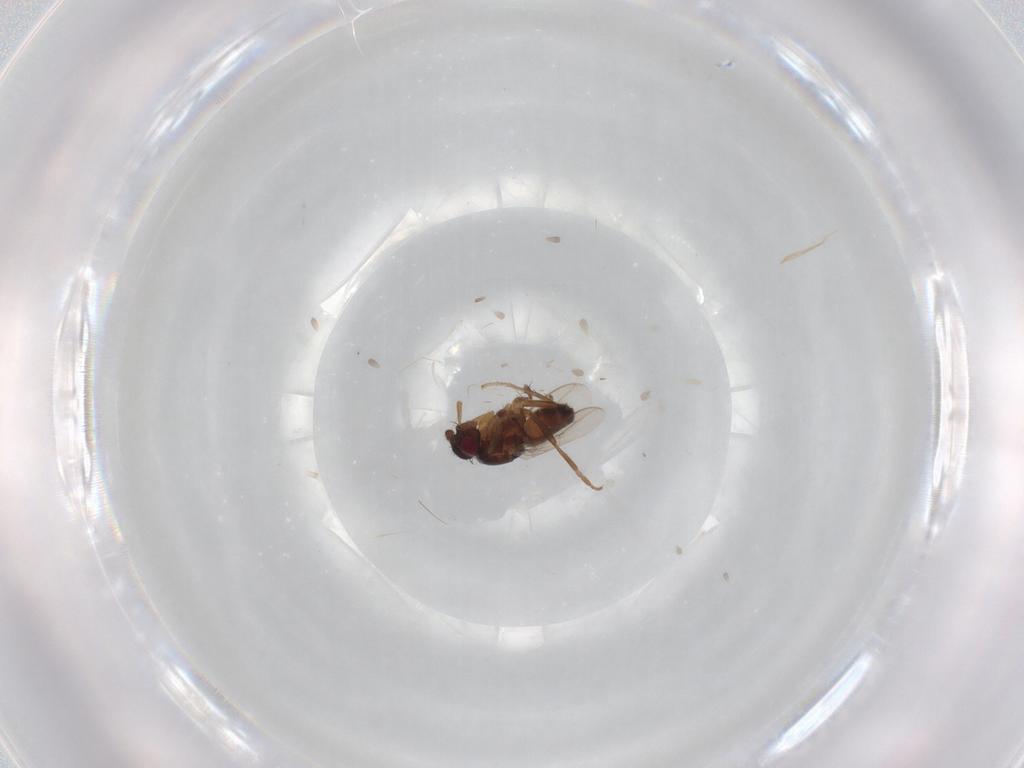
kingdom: Animalia
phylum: Arthropoda
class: Insecta
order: Diptera
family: Sphaeroceridae
